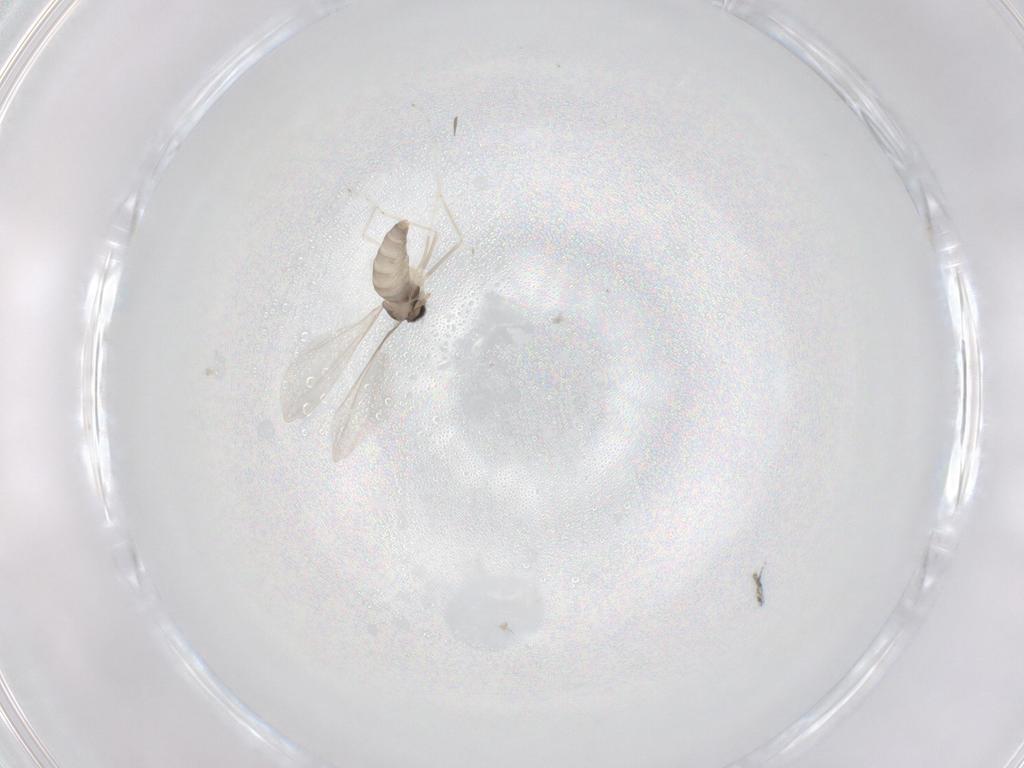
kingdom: Animalia
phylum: Arthropoda
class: Insecta
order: Diptera
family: Cecidomyiidae
